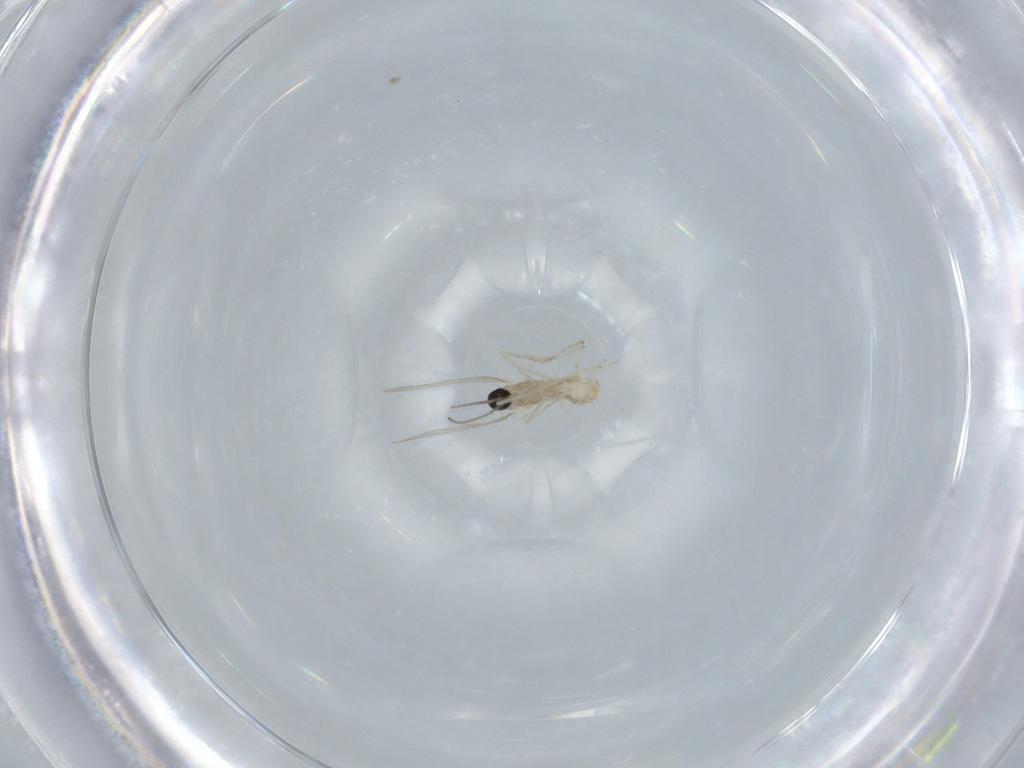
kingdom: Animalia
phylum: Arthropoda
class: Insecta
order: Diptera
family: Cecidomyiidae
